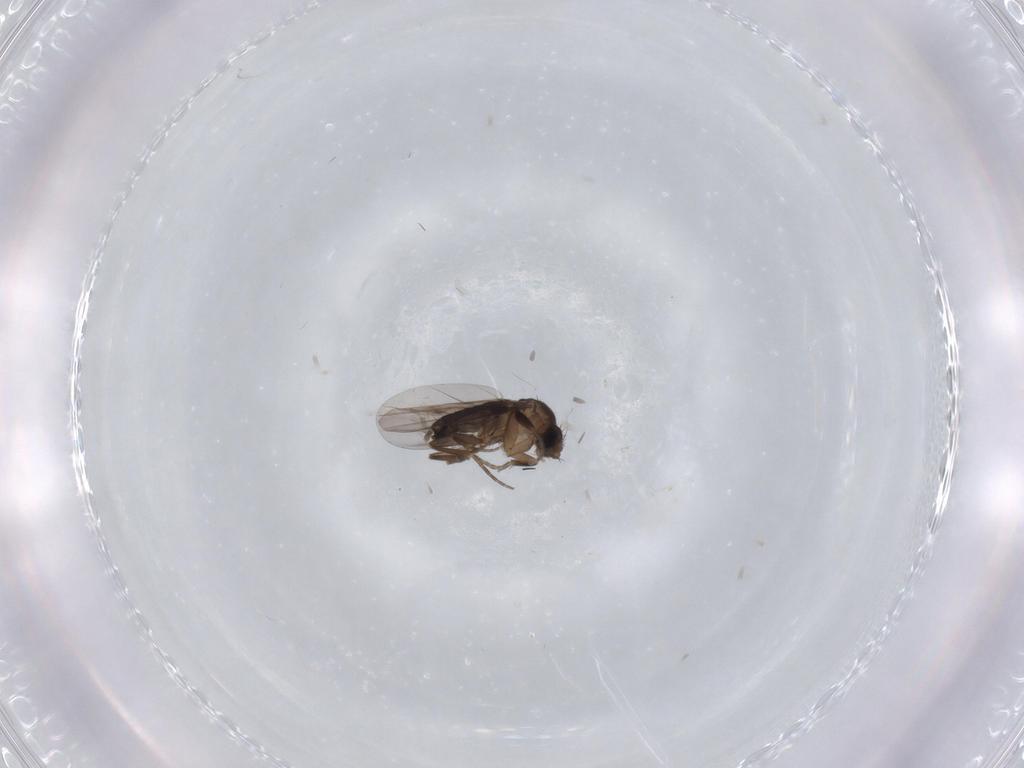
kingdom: Animalia
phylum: Arthropoda
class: Insecta
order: Diptera
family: Phoridae
